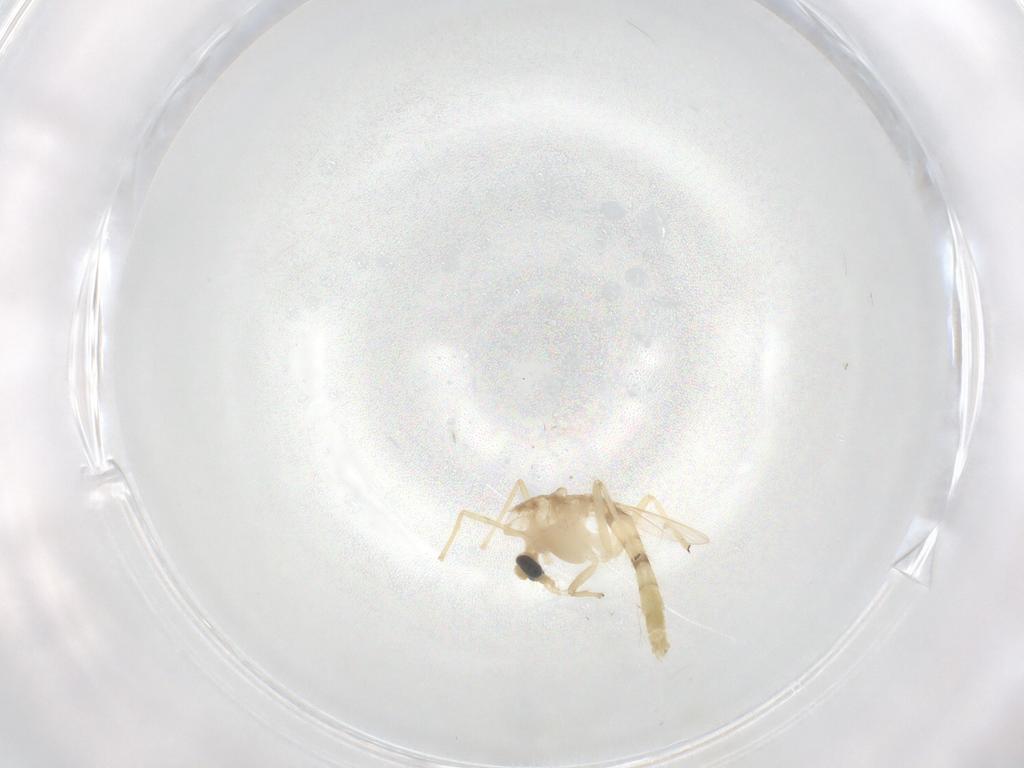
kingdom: Animalia
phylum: Arthropoda
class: Insecta
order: Diptera
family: Chironomidae
